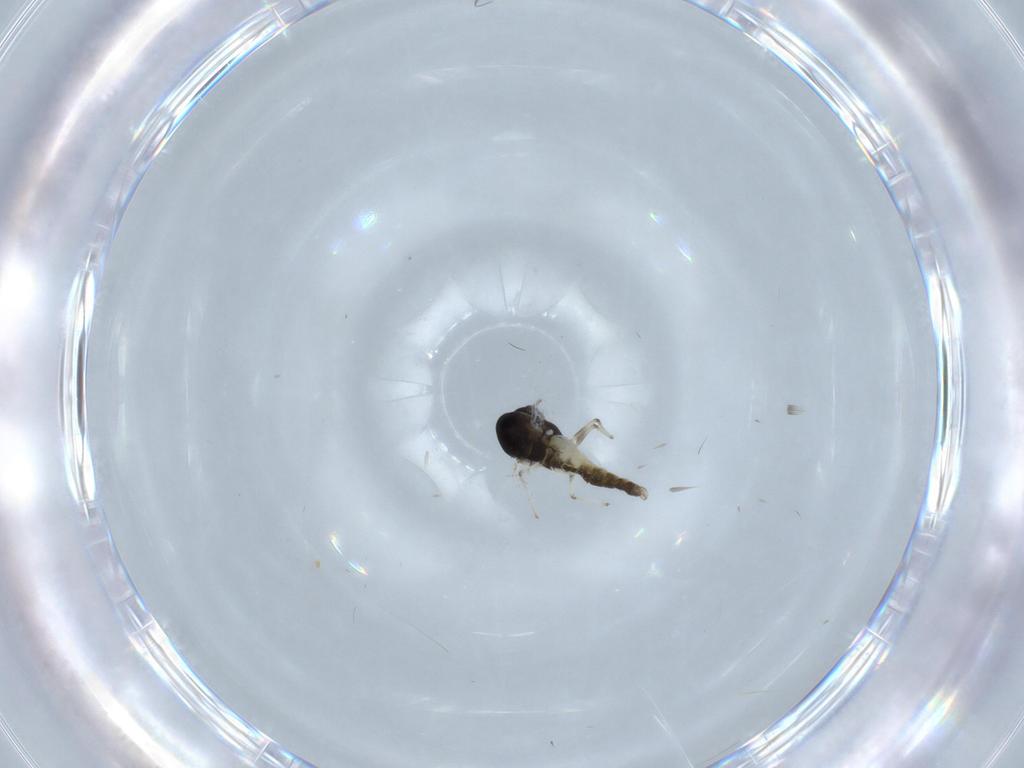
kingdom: Animalia
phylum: Arthropoda
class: Insecta
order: Diptera
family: Chironomidae
